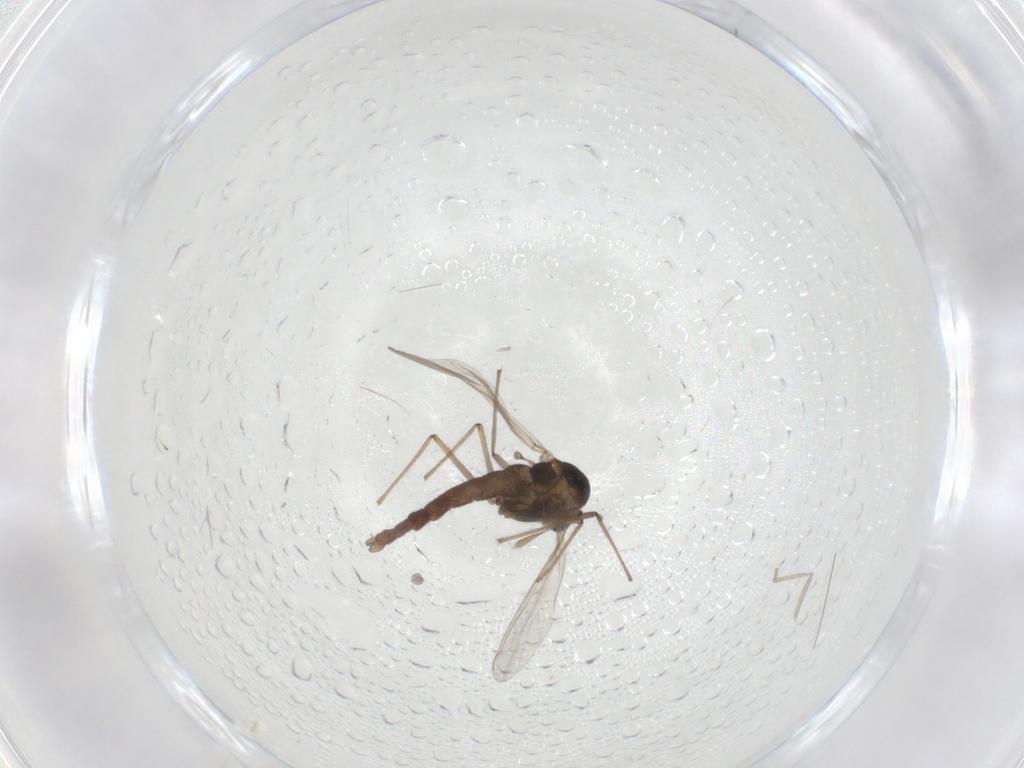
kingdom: Animalia
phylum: Arthropoda
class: Insecta
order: Diptera
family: Chironomidae
